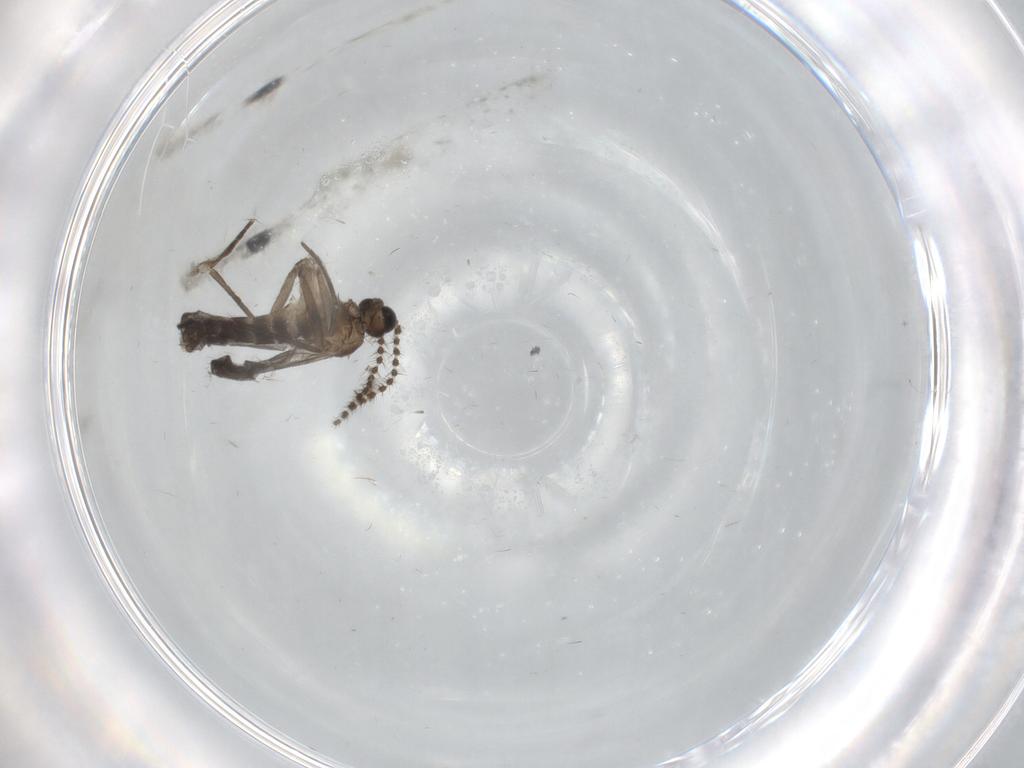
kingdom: Animalia
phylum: Arthropoda
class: Insecta
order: Diptera
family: Sciaridae
